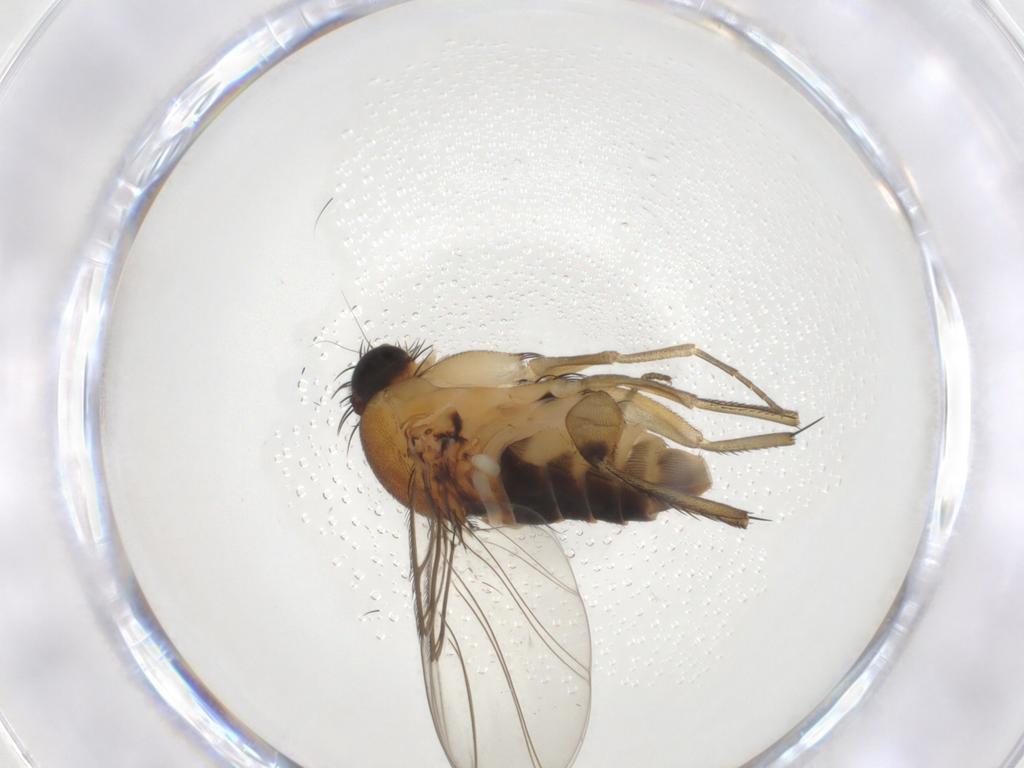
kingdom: Animalia
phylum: Arthropoda
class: Insecta
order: Diptera
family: Phoridae
